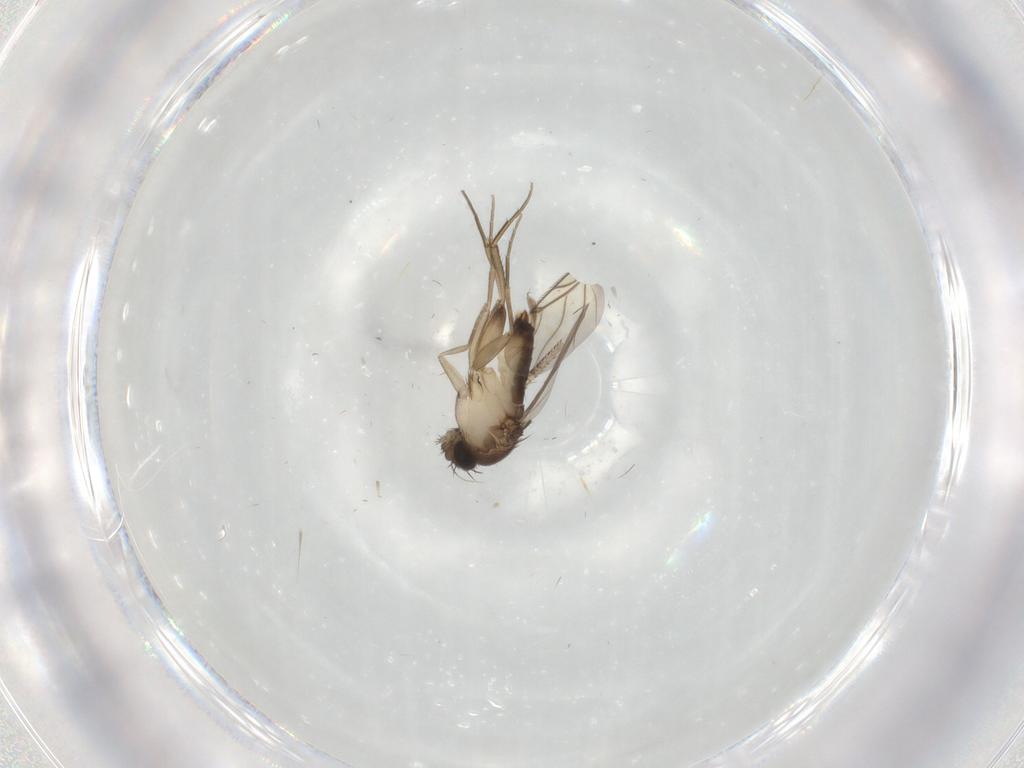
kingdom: Animalia
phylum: Arthropoda
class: Insecta
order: Diptera
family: Phoridae
